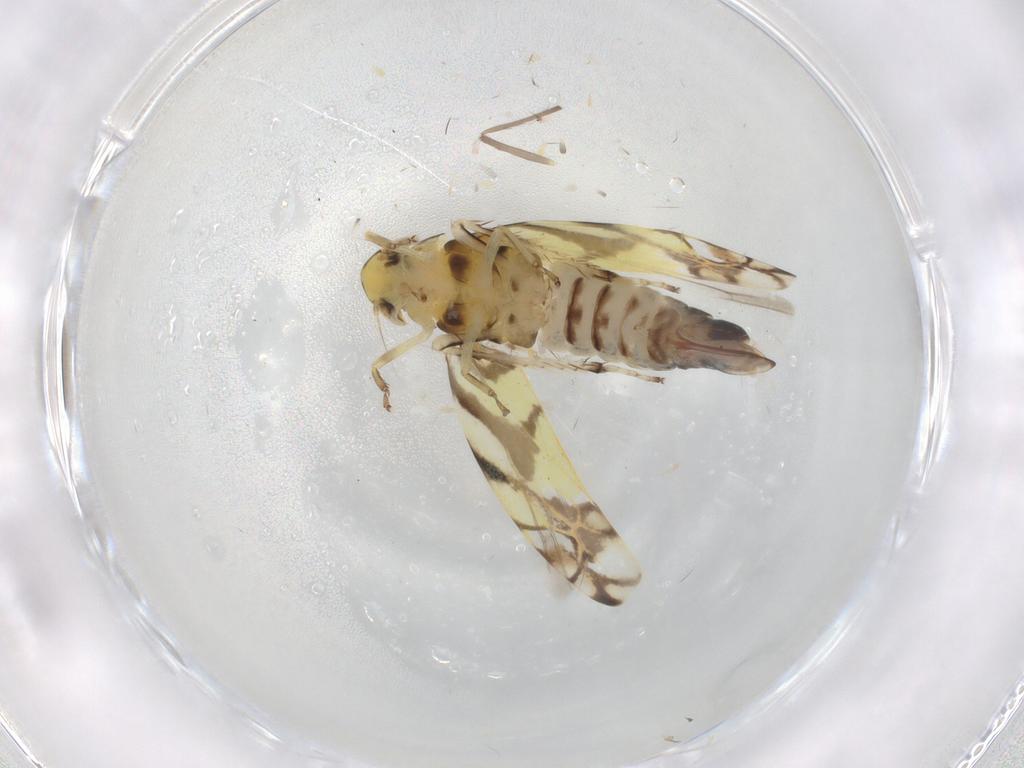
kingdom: Animalia
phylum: Arthropoda
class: Insecta
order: Hemiptera
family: Cicadellidae
